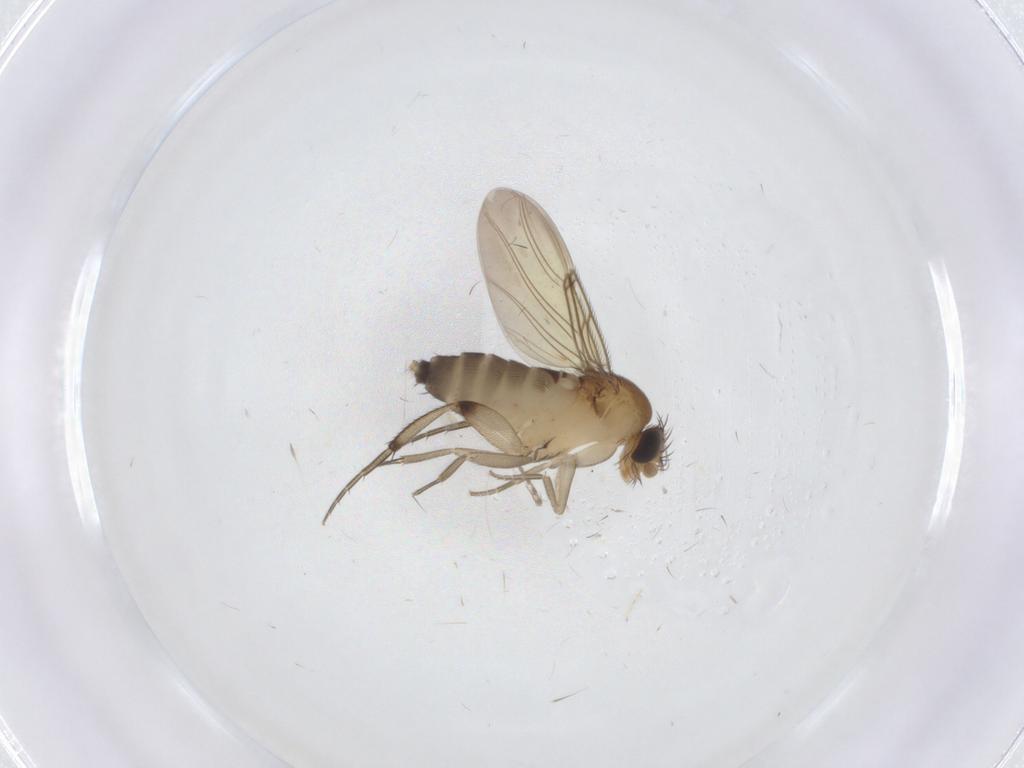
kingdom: Animalia
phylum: Arthropoda
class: Insecta
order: Diptera
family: Phoridae
